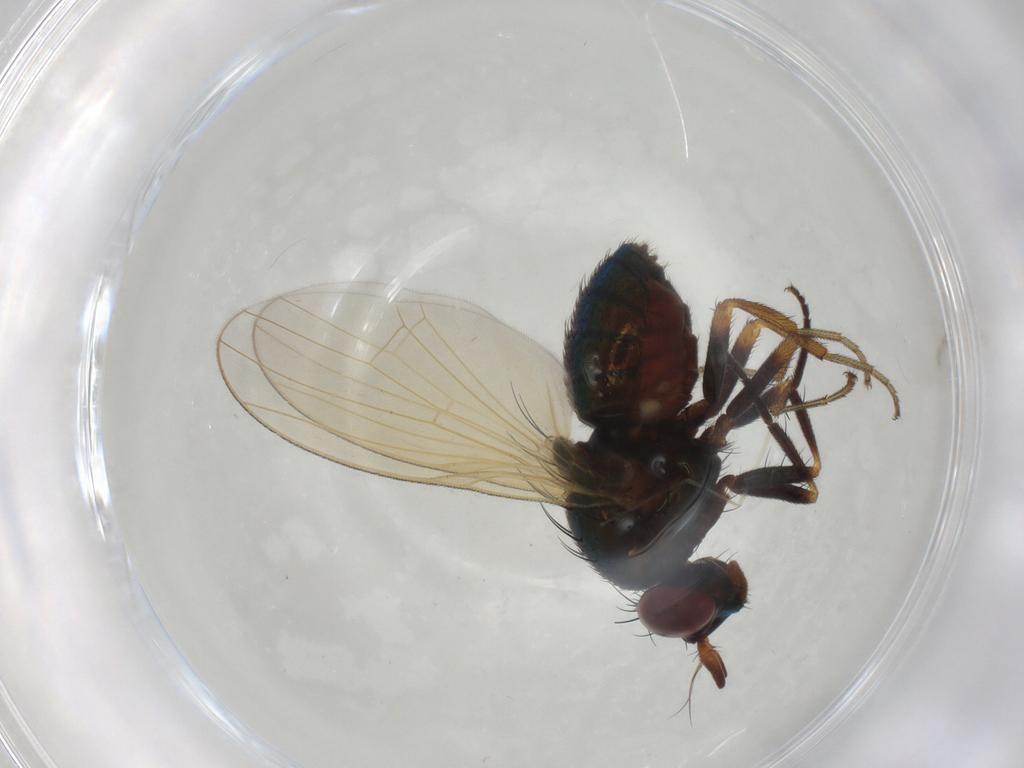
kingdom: Animalia
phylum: Arthropoda
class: Insecta
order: Diptera
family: Lauxaniidae
